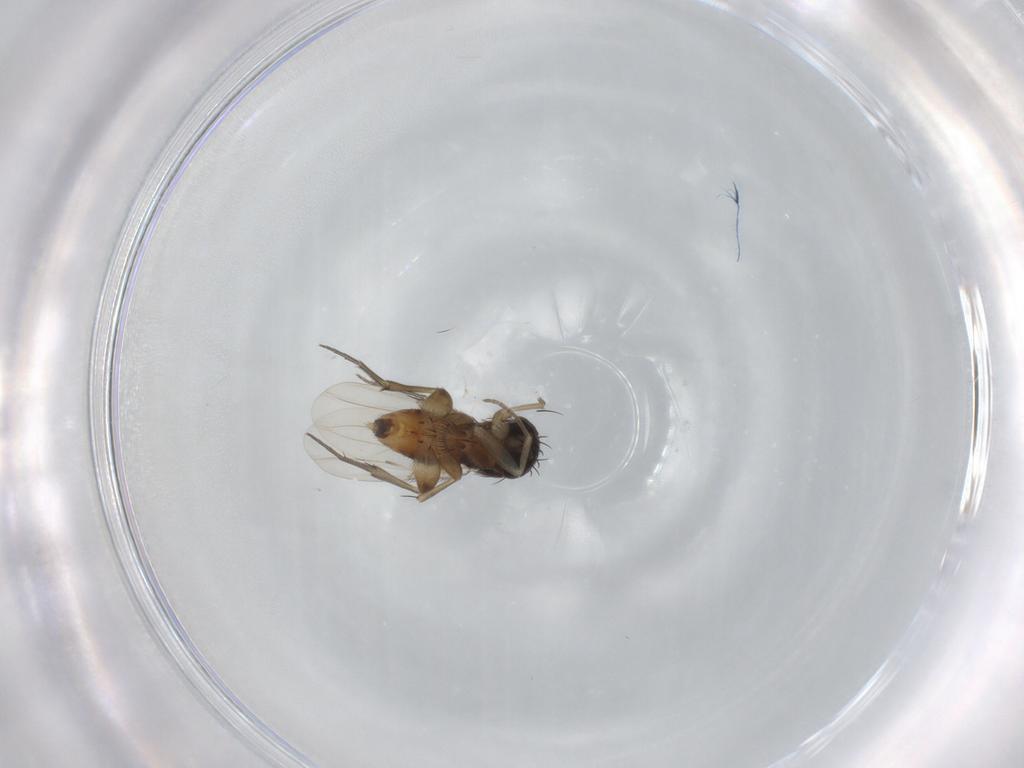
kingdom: Animalia
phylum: Arthropoda
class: Insecta
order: Diptera
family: Phoridae
